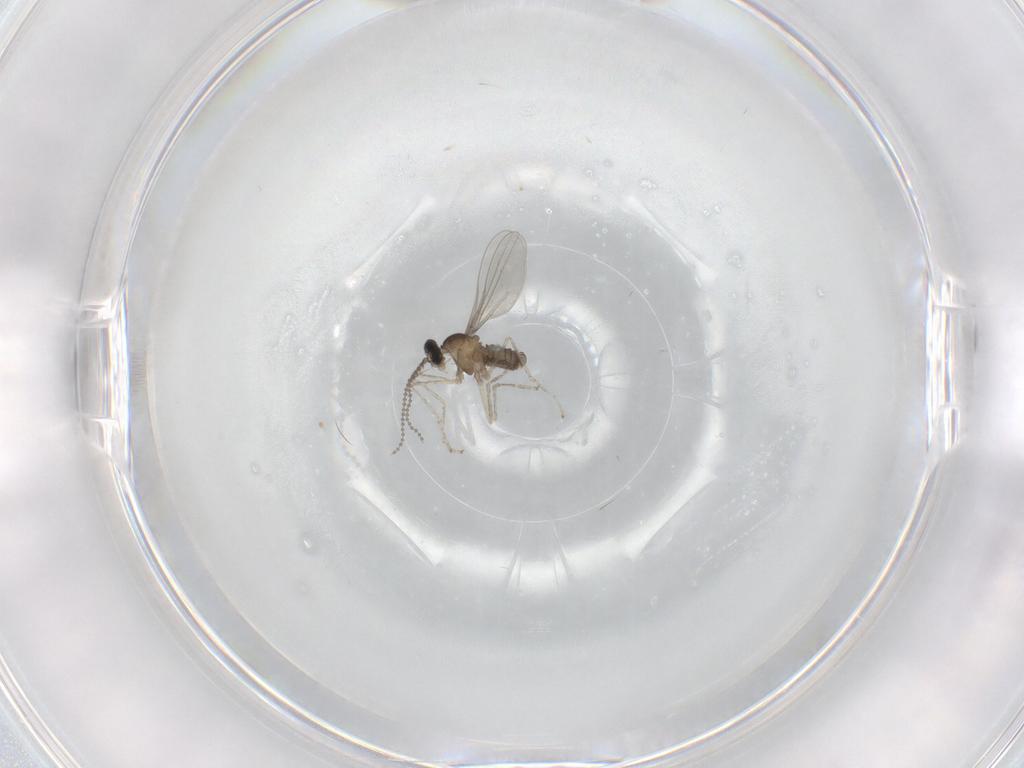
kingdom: Animalia
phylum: Arthropoda
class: Insecta
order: Diptera
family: Cecidomyiidae
